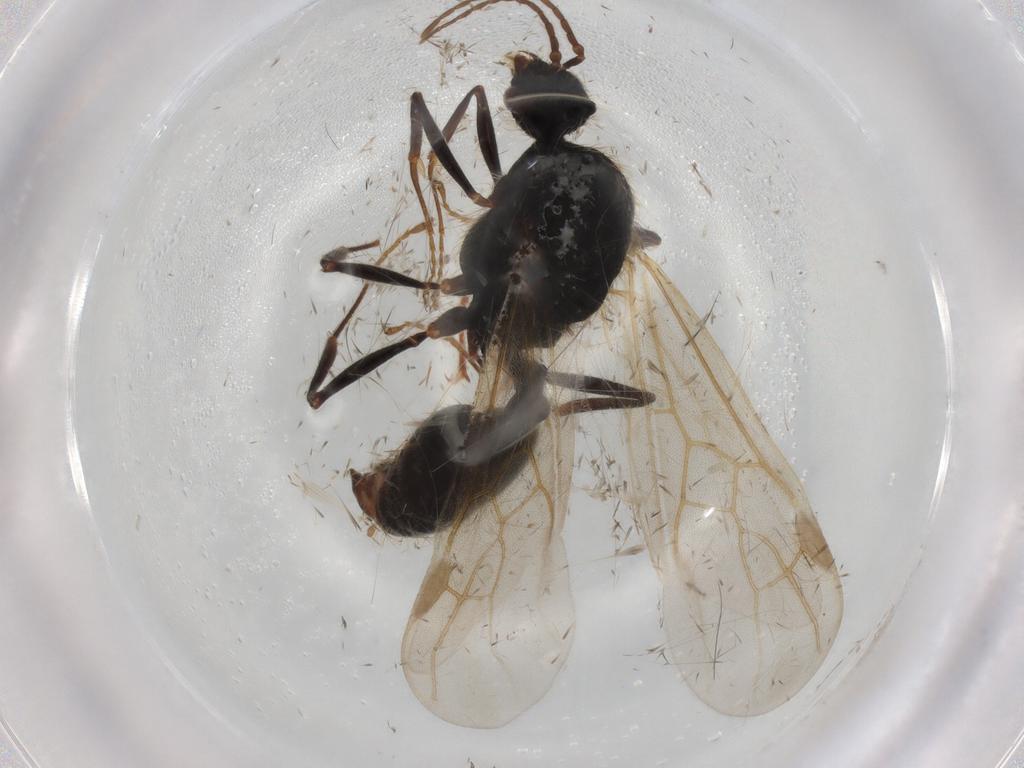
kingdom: Animalia
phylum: Arthropoda
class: Insecta
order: Hymenoptera
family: Formicidae
